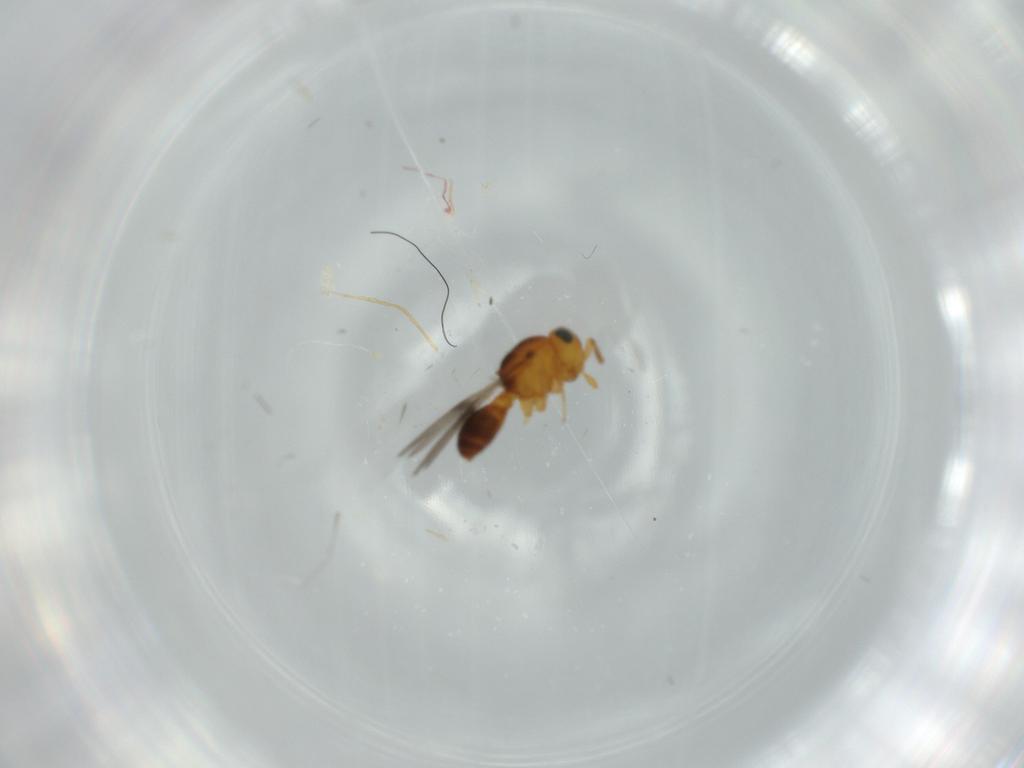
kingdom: Animalia
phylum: Arthropoda
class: Insecta
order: Hymenoptera
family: Scelionidae
